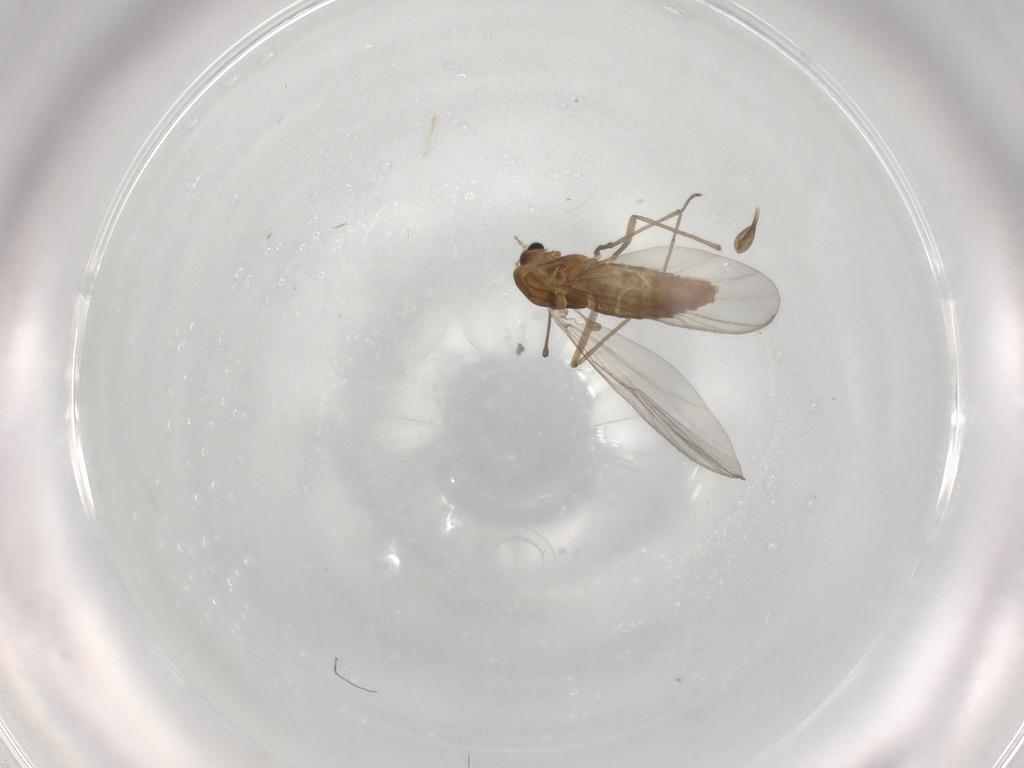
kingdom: Animalia
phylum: Arthropoda
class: Insecta
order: Diptera
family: Chironomidae
